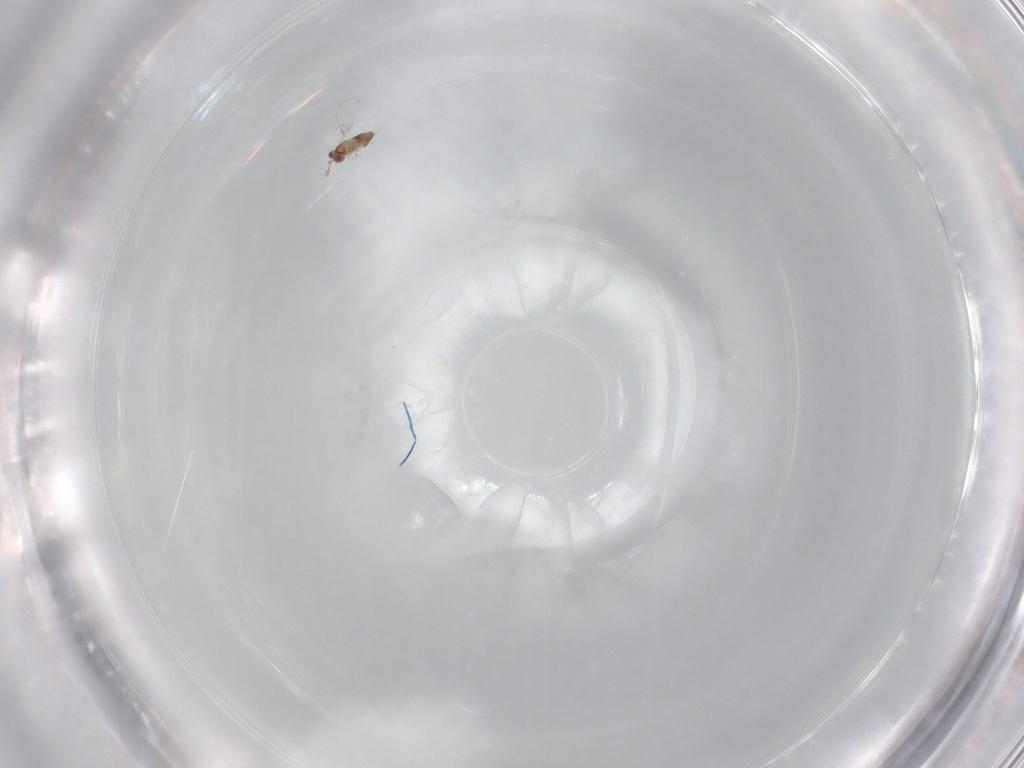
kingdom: Animalia
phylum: Arthropoda
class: Insecta
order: Hymenoptera
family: Trichogrammatidae
